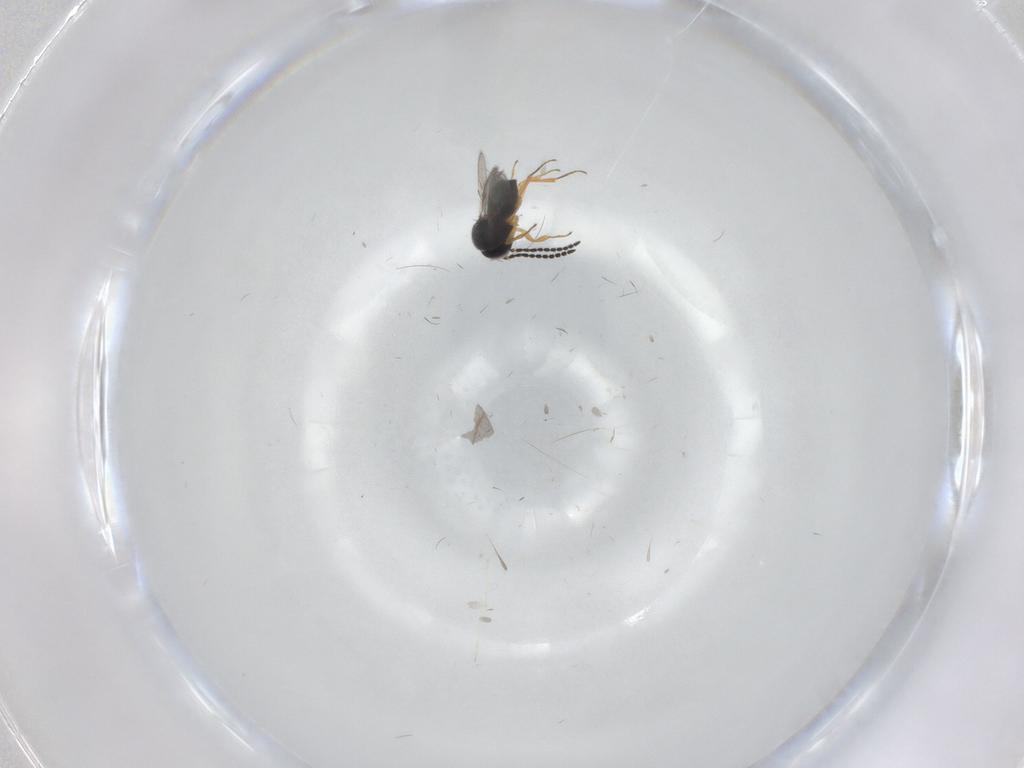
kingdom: Animalia
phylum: Arthropoda
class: Insecta
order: Hymenoptera
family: Scelionidae
